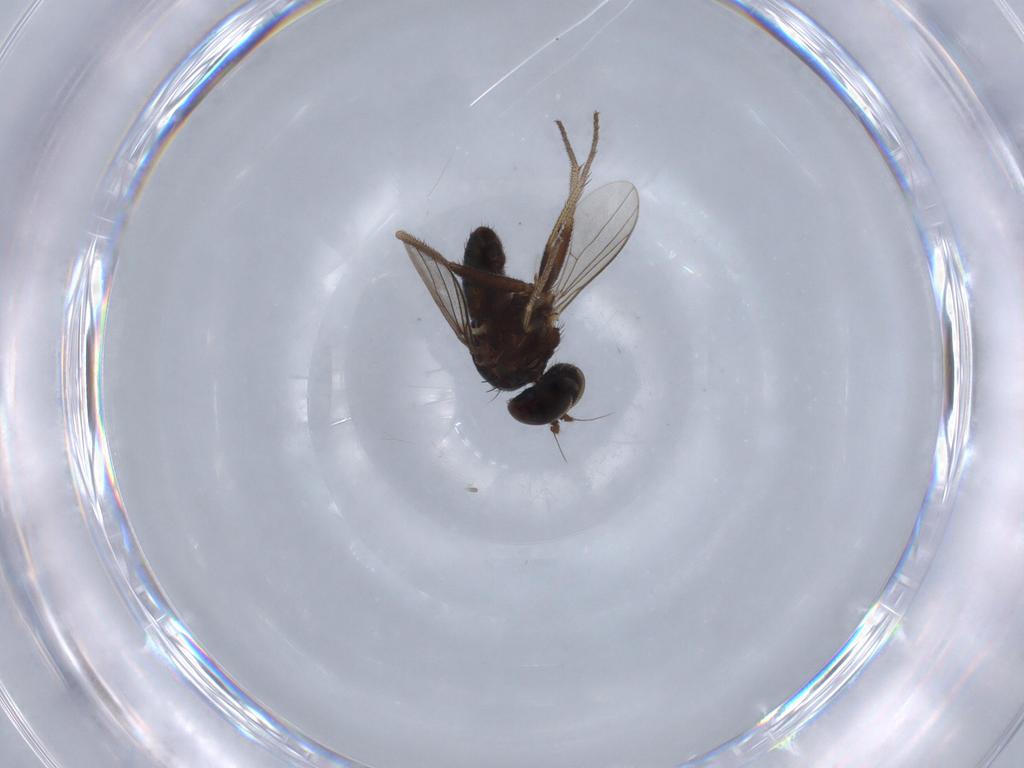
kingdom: Animalia
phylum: Arthropoda
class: Insecta
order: Diptera
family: Dolichopodidae
